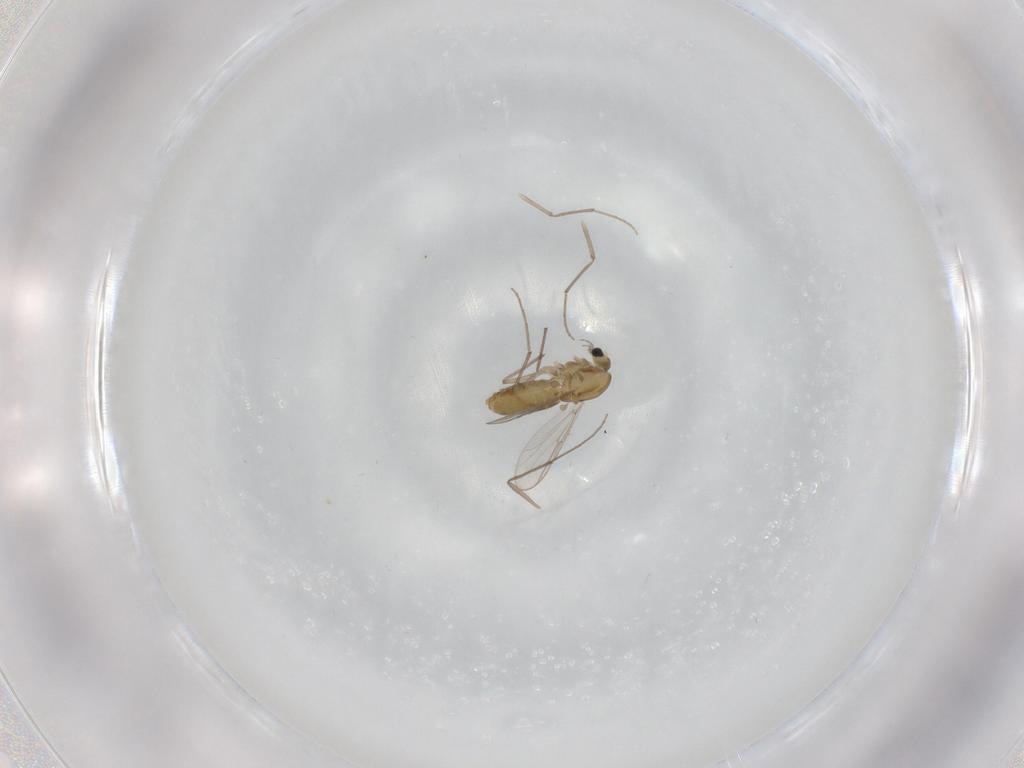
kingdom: Animalia
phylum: Arthropoda
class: Insecta
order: Diptera
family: Chironomidae
